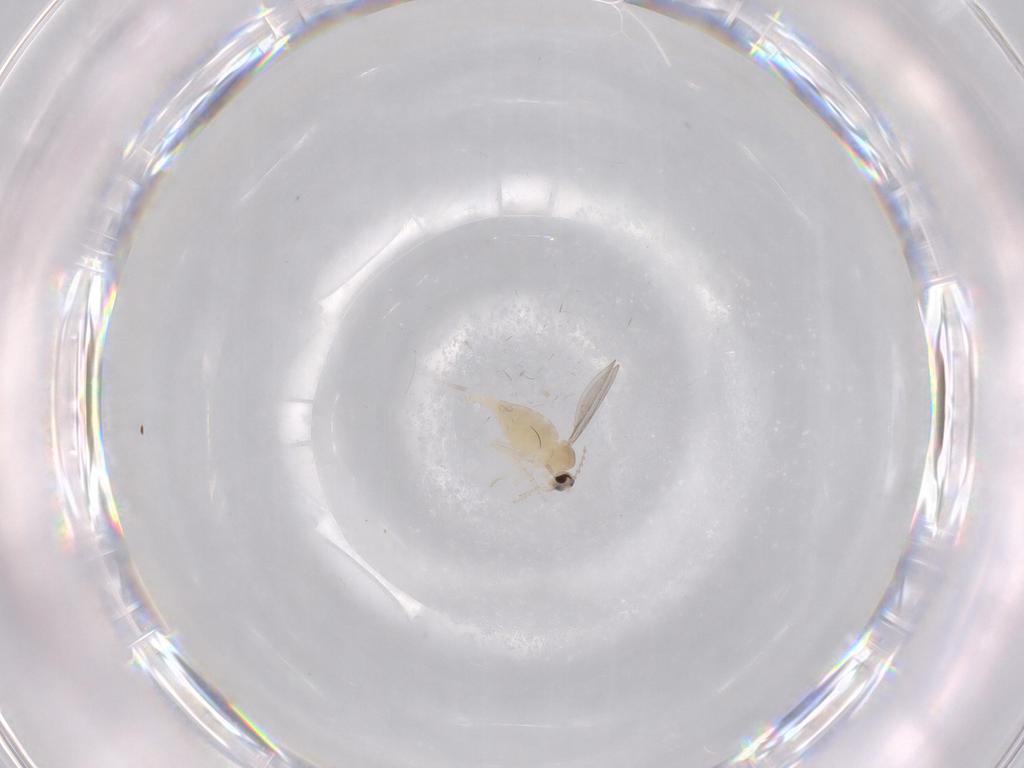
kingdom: Animalia
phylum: Arthropoda
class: Insecta
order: Diptera
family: Cecidomyiidae
